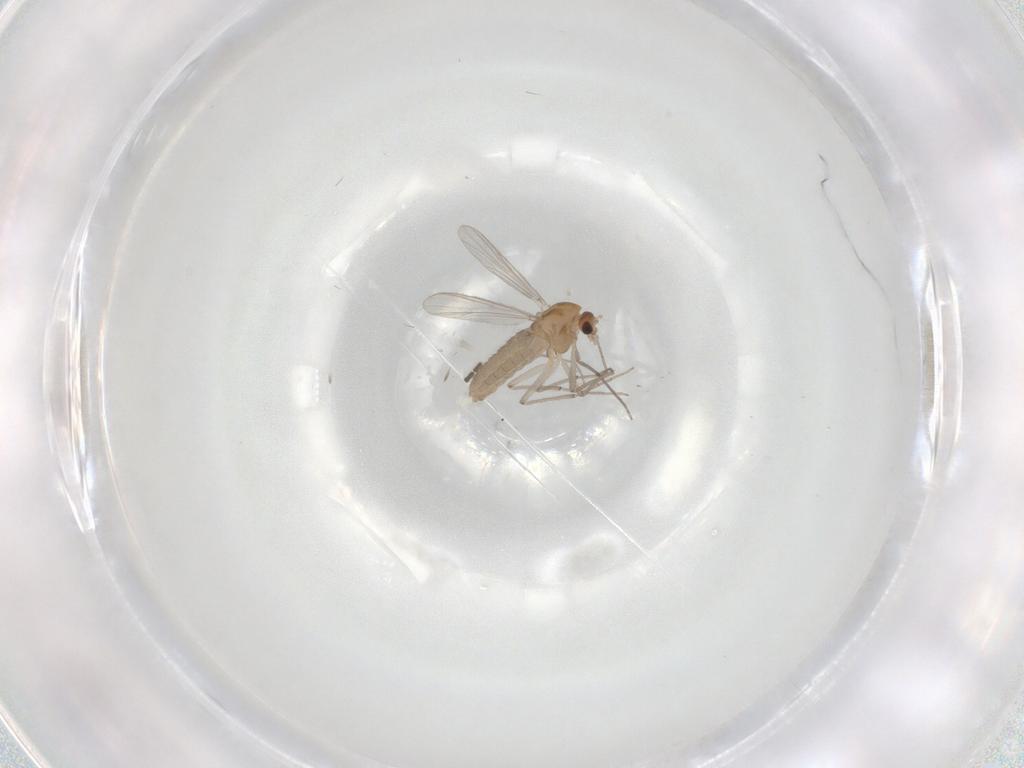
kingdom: Animalia
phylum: Arthropoda
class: Insecta
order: Diptera
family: Chironomidae
